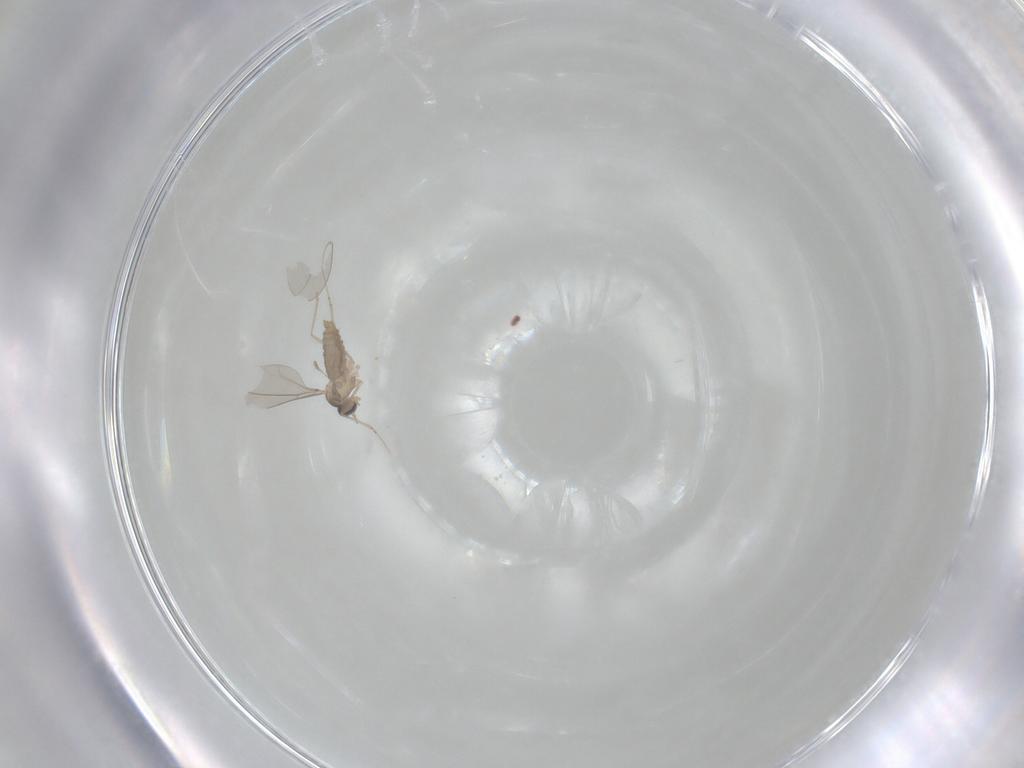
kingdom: Animalia
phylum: Arthropoda
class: Insecta
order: Diptera
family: Cecidomyiidae
